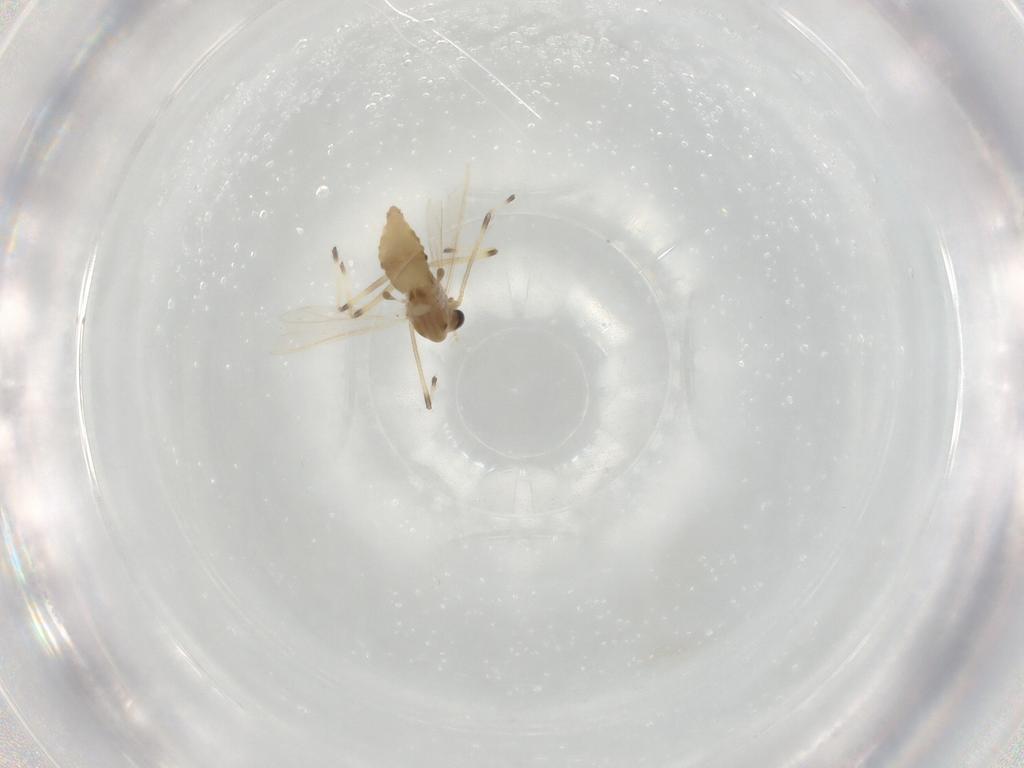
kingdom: Animalia
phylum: Arthropoda
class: Insecta
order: Diptera
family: Chironomidae
